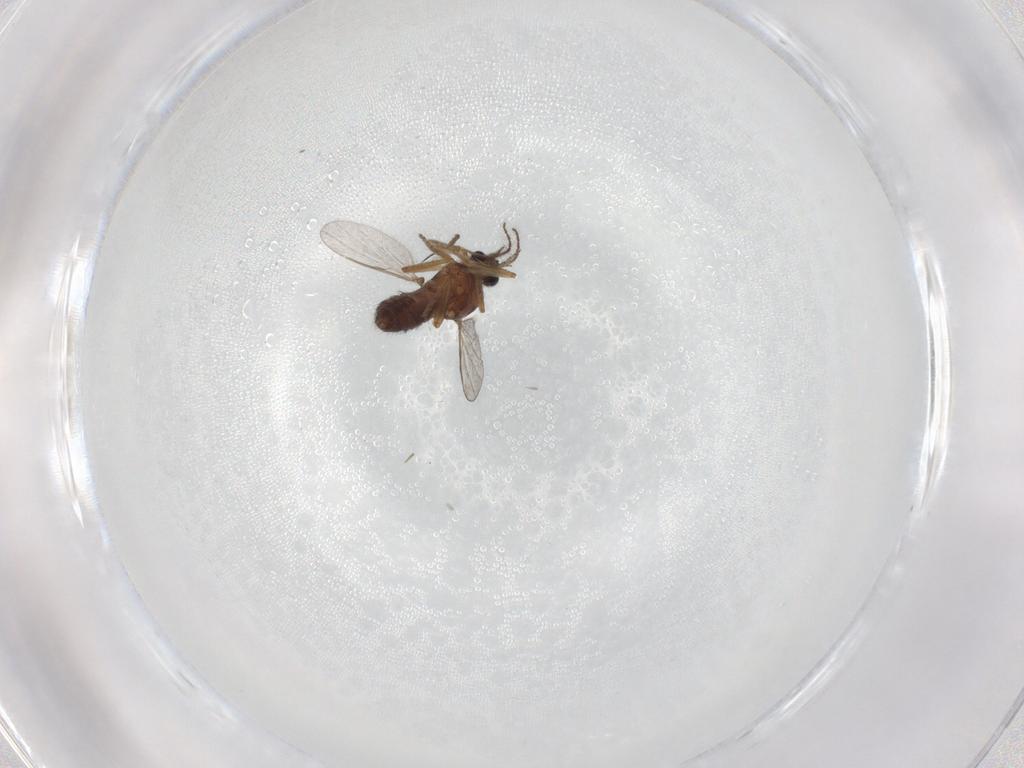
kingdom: Animalia
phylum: Arthropoda
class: Insecta
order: Diptera
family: Ceratopogonidae
